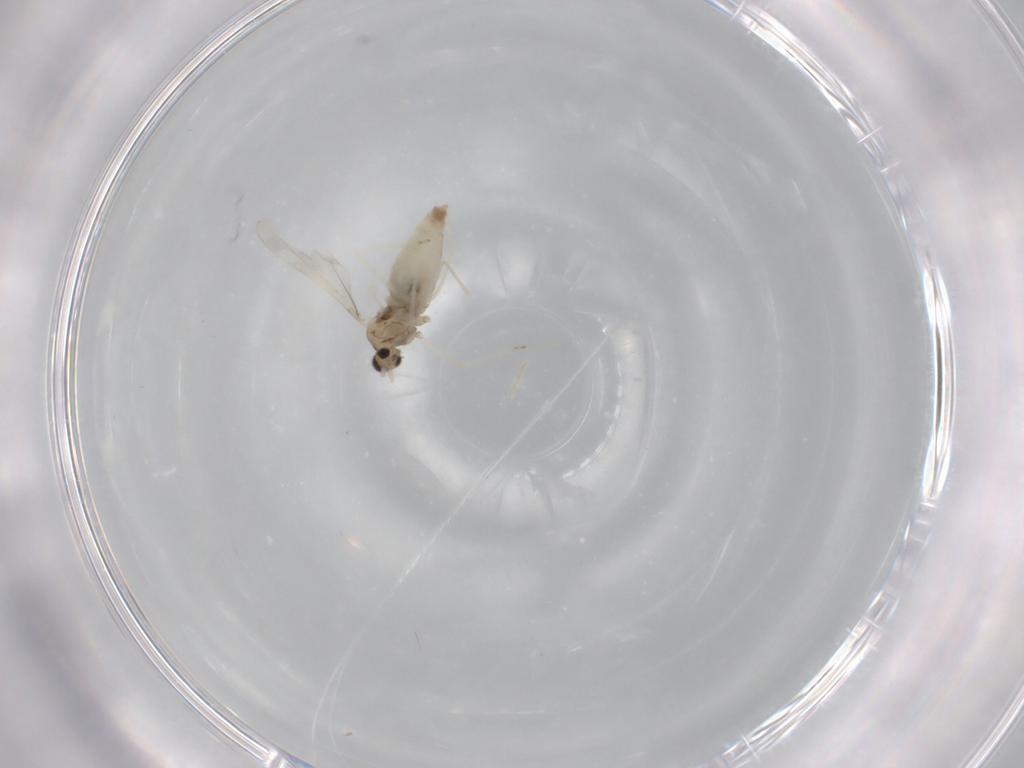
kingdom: Animalia
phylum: Arthropoda
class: Insecta
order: Diptera
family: Cecidomyiidae
